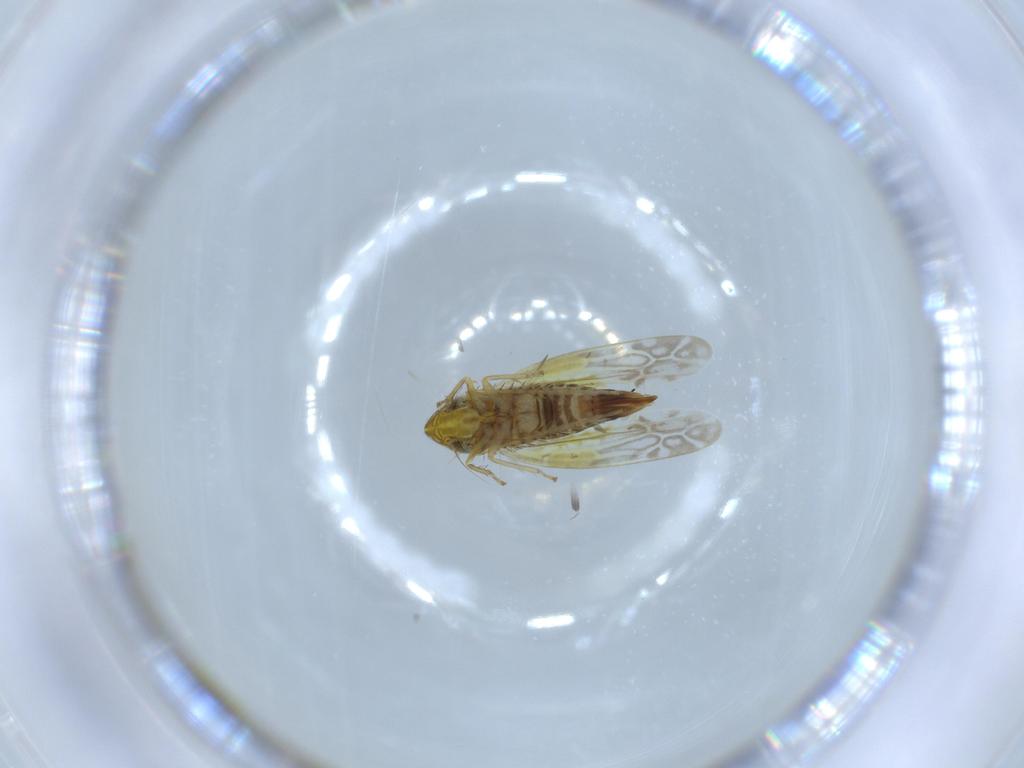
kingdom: Animalia
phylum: Arthropoda
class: Insecta
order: Hemiptera
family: Cicadellidae
